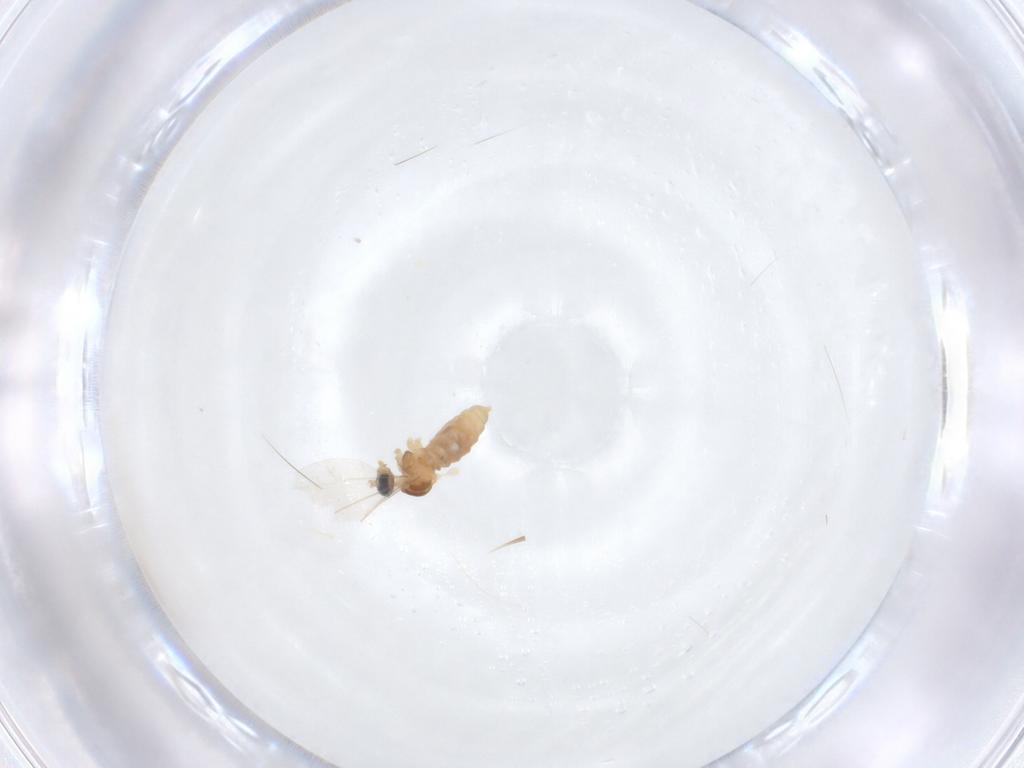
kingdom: Animalia
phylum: Arthropoda
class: Insecta
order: Diptera
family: Cecidomyiidae
